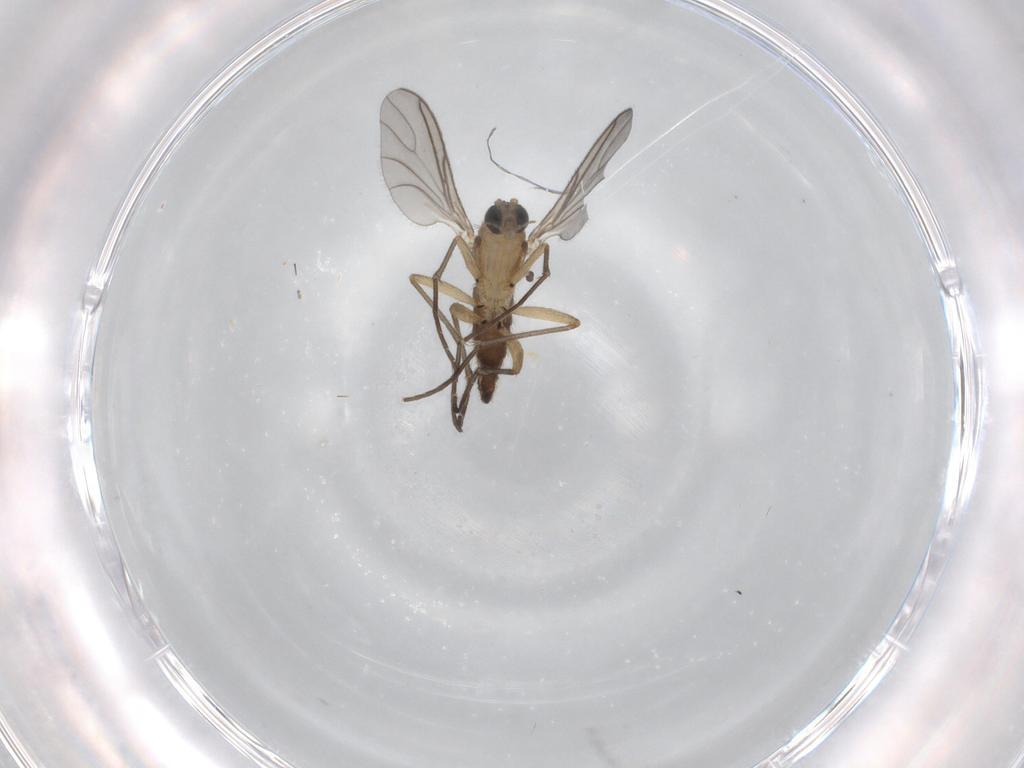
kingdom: Animalia
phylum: Arthropoda
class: Insecta
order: Diptera
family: Sciaridae
